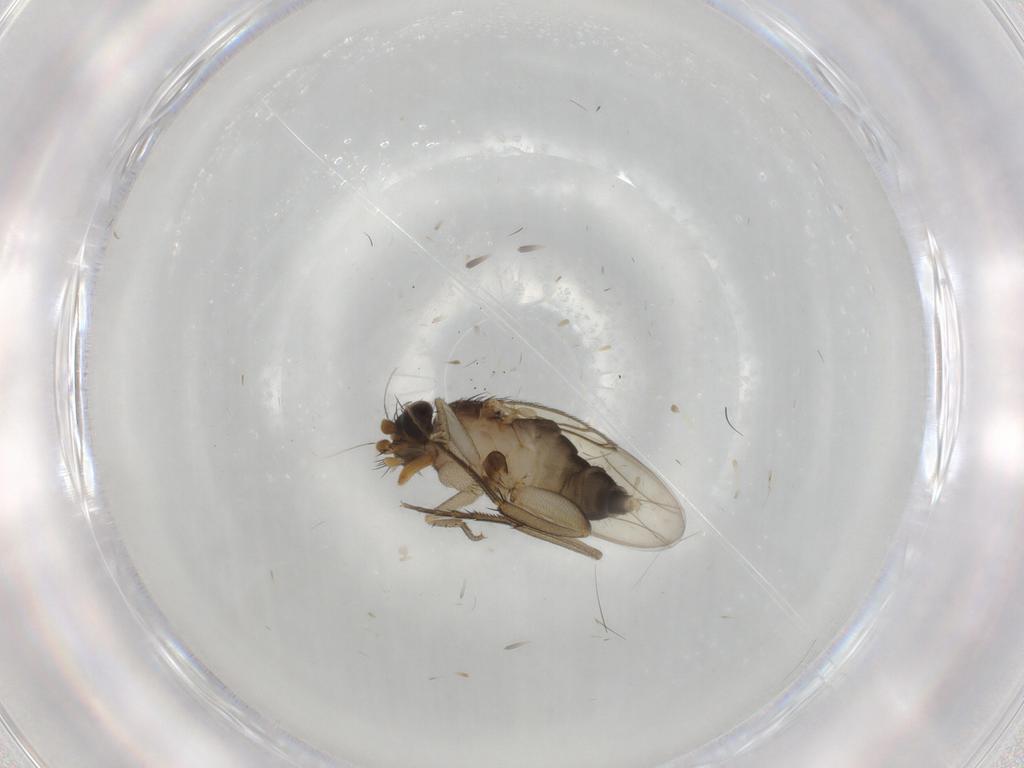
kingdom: Animalia
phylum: Arthropoda
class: Insecta
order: Diptera
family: Phoridae
